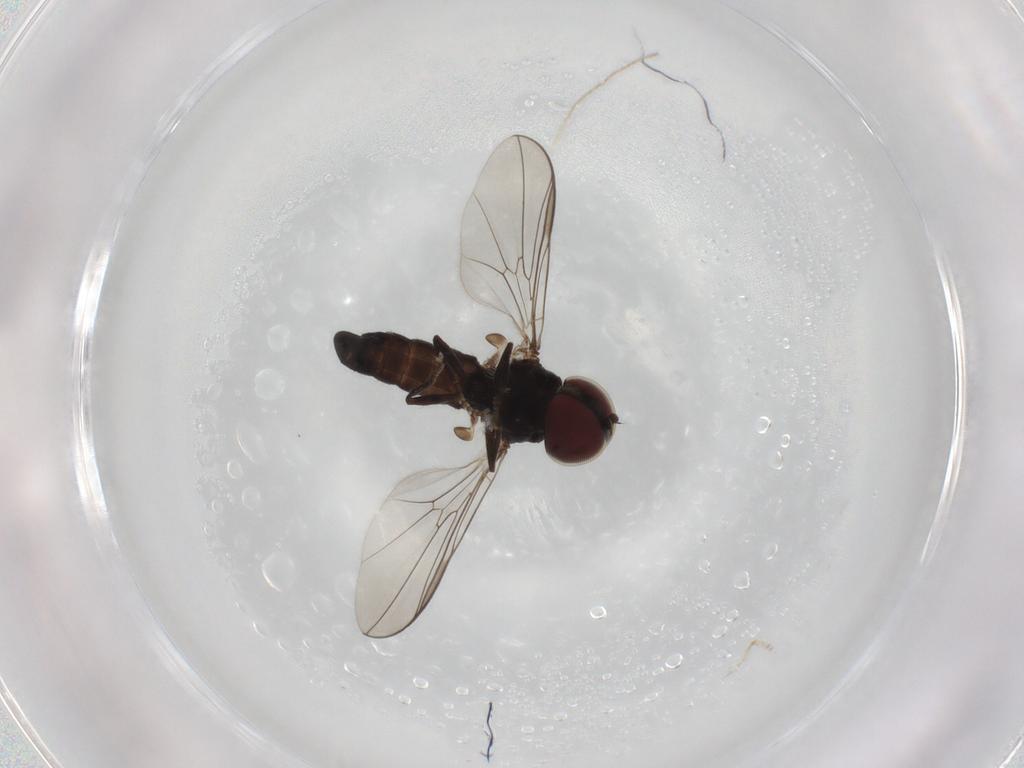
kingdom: Animalia
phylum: Arthropoda
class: Insecta
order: Diptera
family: Pipunculidae
